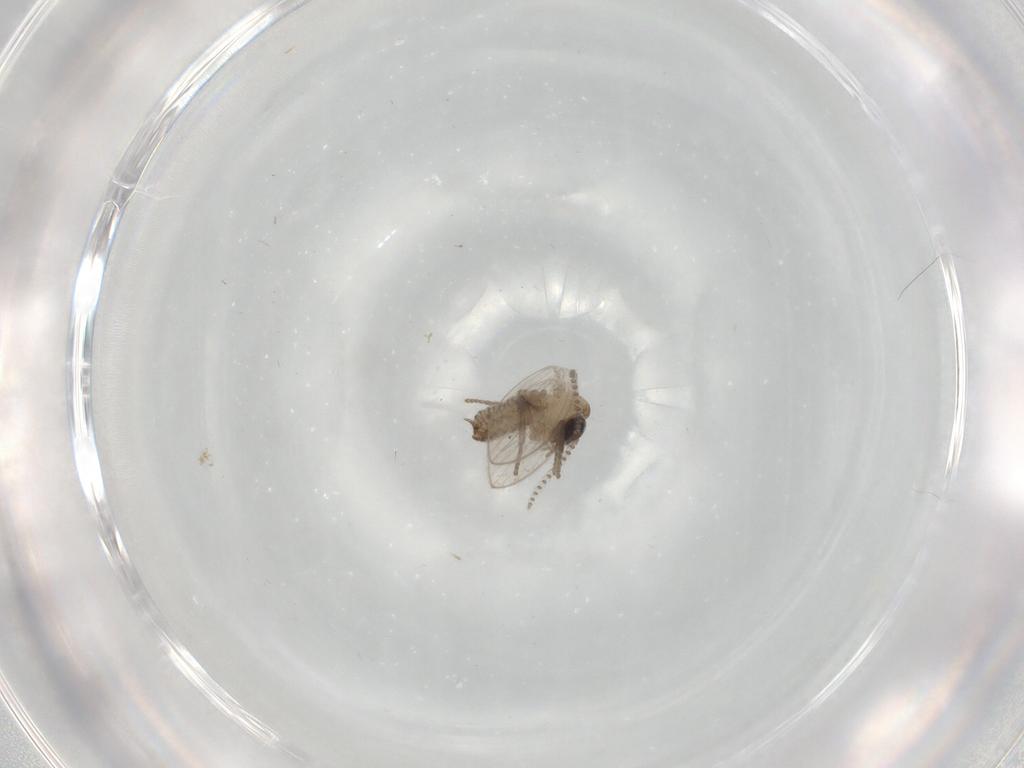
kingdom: Animalia
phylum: Arthropoda
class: Insecta
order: Diptera
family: Psychodidae
